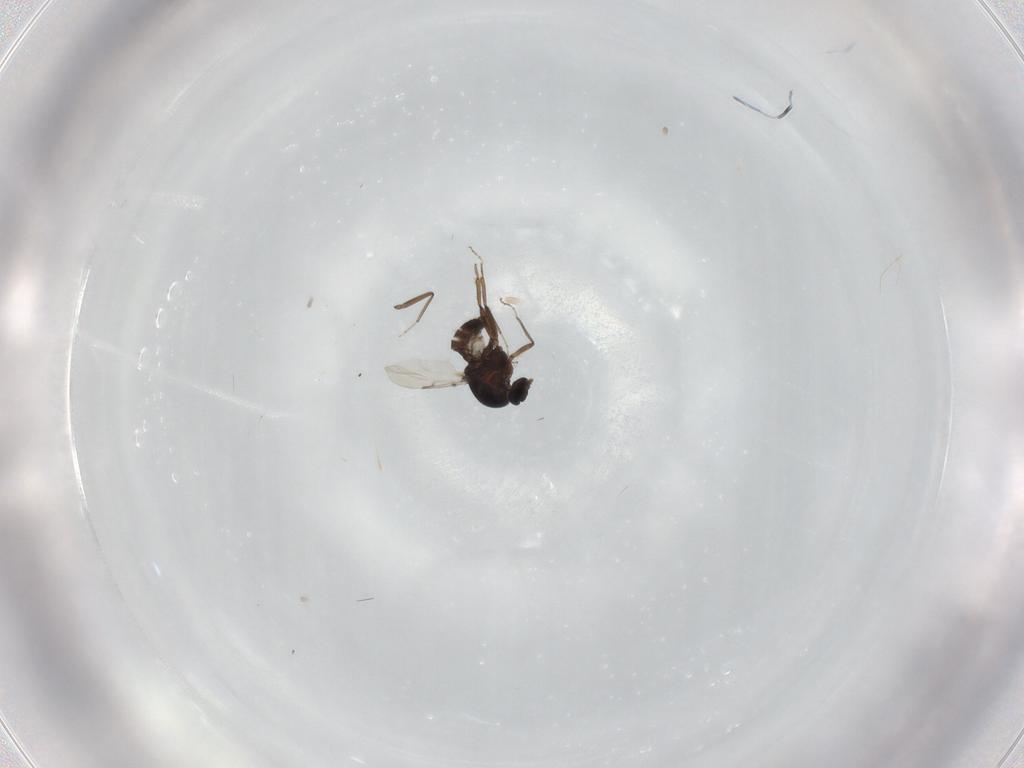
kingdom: Animalia
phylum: Arthropoda
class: Insecta
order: Diptera
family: Ceratopogonidae
